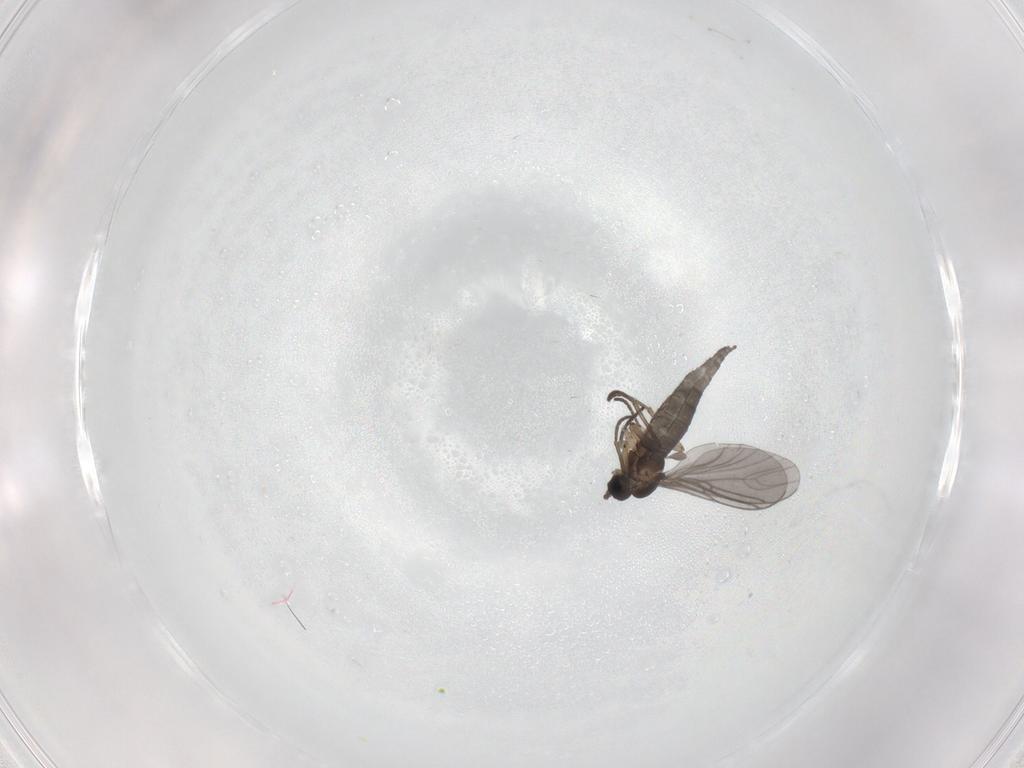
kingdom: Animalia
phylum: Arthropoda
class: Insecta
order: Diptera
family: Sciaridae
